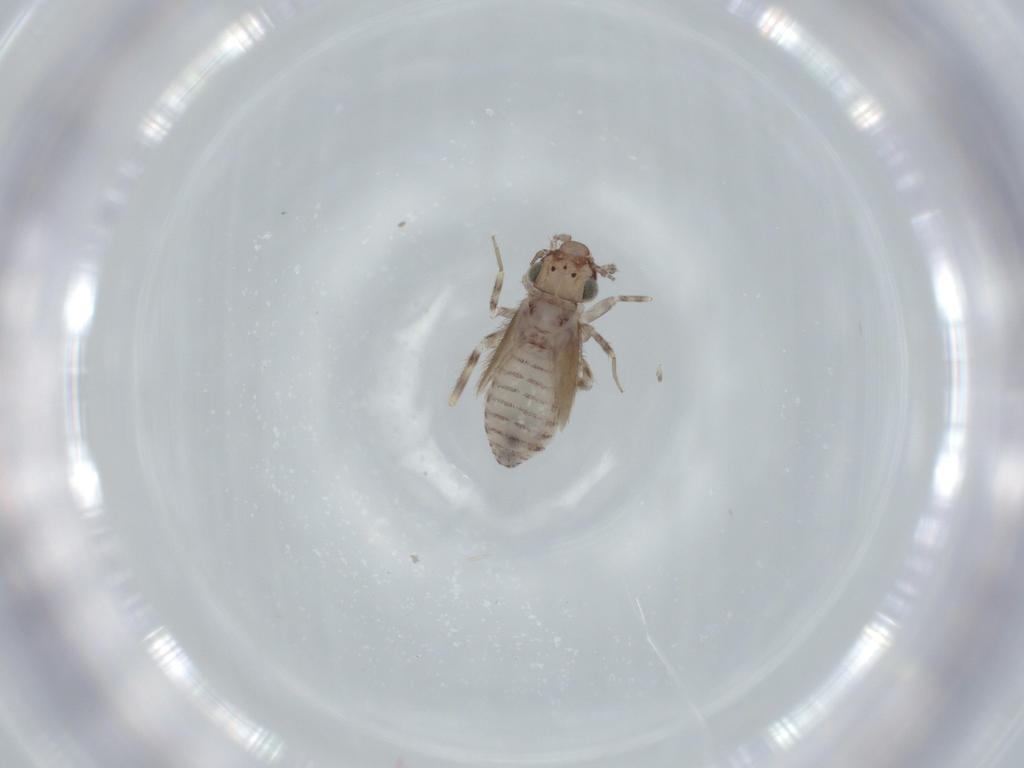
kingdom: Animalia
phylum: Arthropoda
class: Insecta
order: Psocodea
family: Lepidopsocidae
